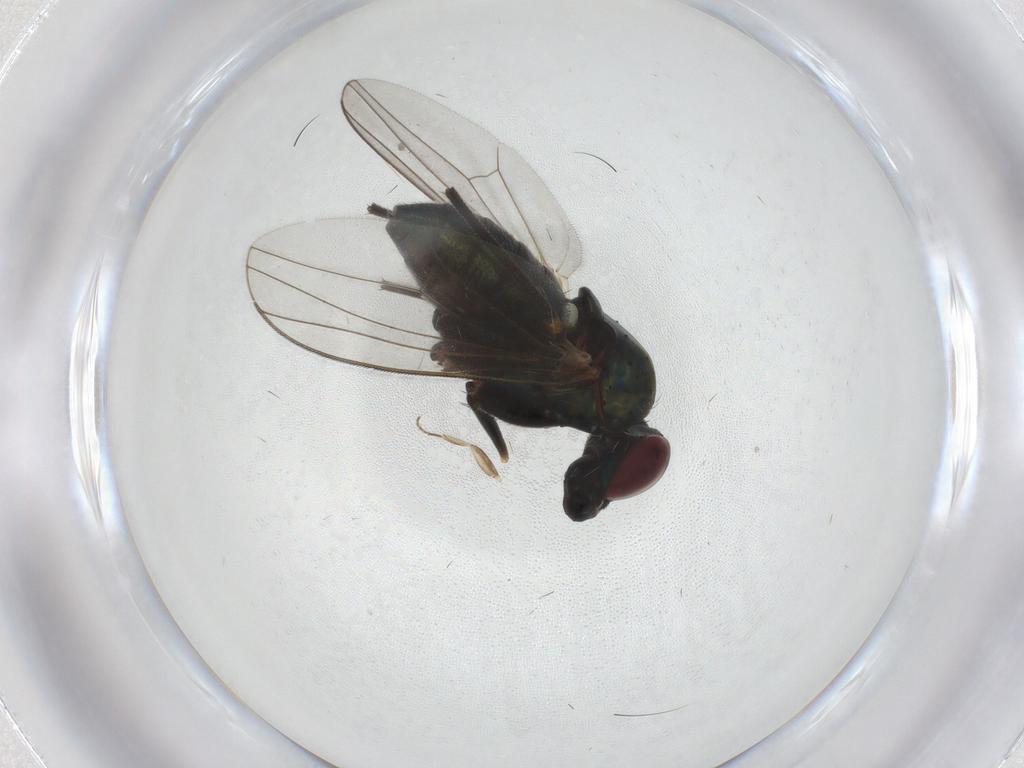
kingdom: Animalia
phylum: Arthropoda
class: Insecta
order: Diptera
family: Dolichopodidae
